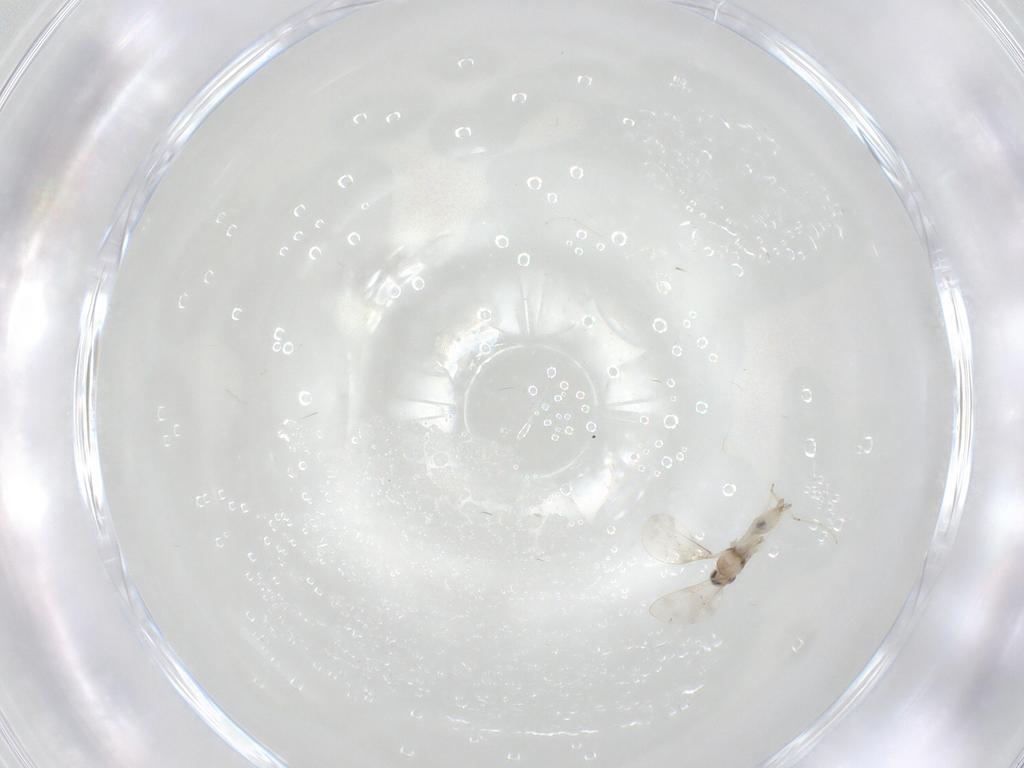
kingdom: Animalia
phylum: Arthropoda
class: Insecta
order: Diptera
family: Cecidomyiidae
